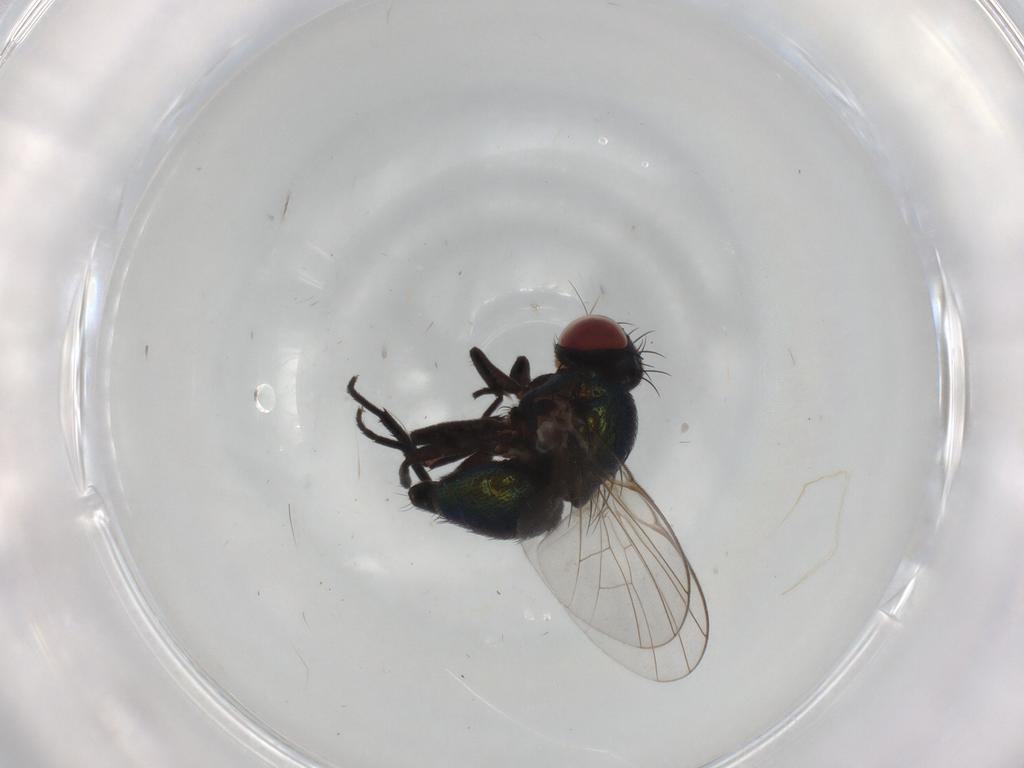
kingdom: Animalia
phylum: Arthropoda
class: Insecta
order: Diptera
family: Agromyzidae
